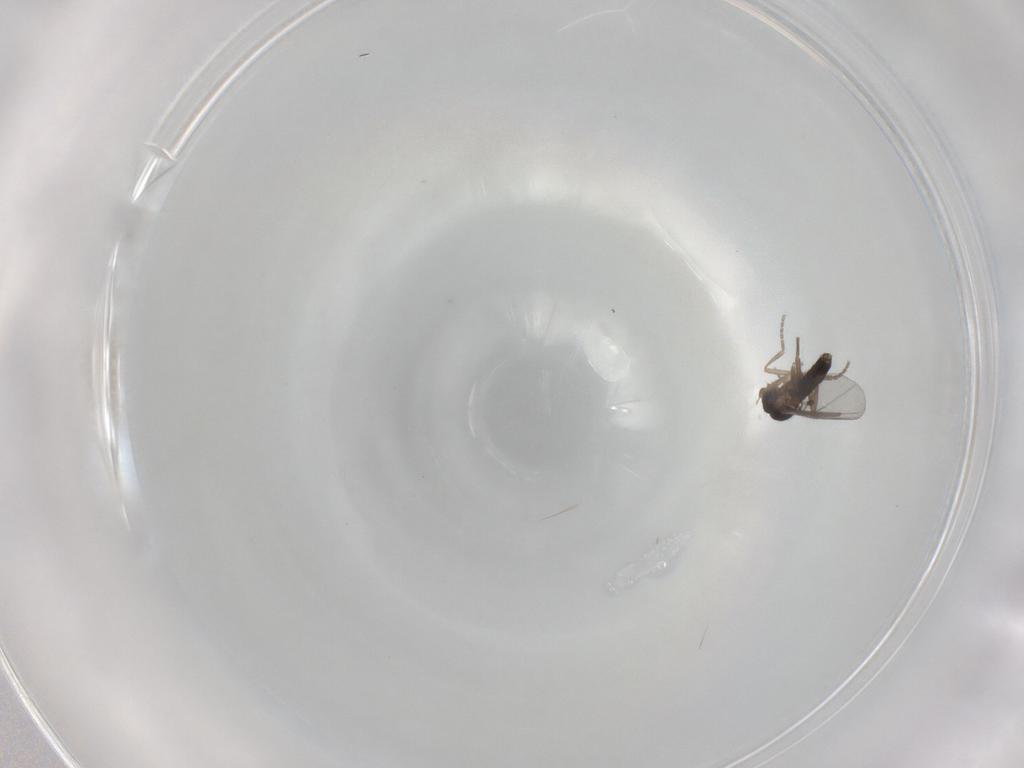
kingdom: Animalia
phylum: Arthropoda
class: Insecta
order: Diptera
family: Phoridae
